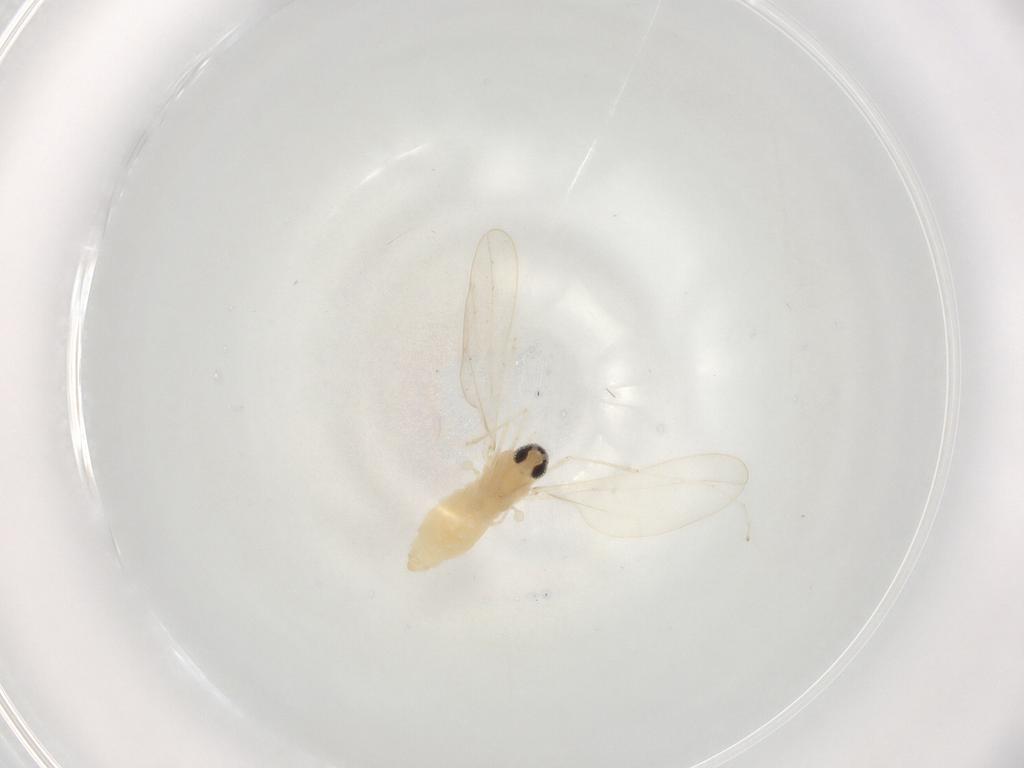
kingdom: Animalia
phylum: Arthropoda
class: Insecta
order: Diptera
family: Cecidomyiidae
